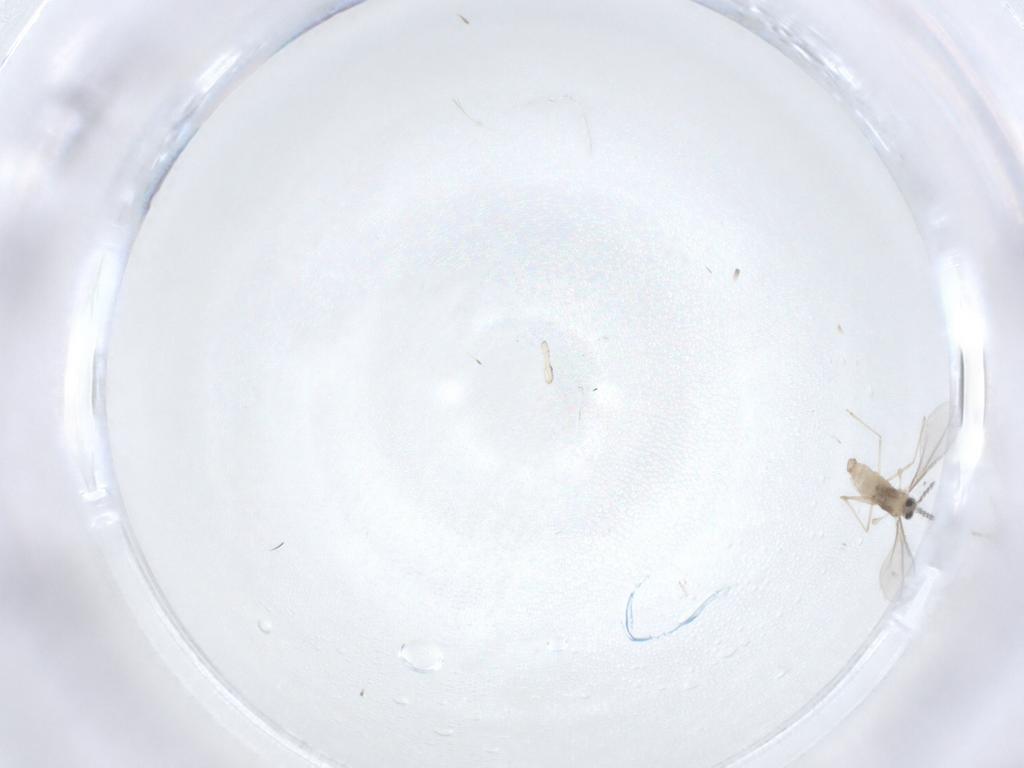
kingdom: Animalia
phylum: Arthropoda
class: Insecta
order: Diptera
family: Cecidomyiidae
